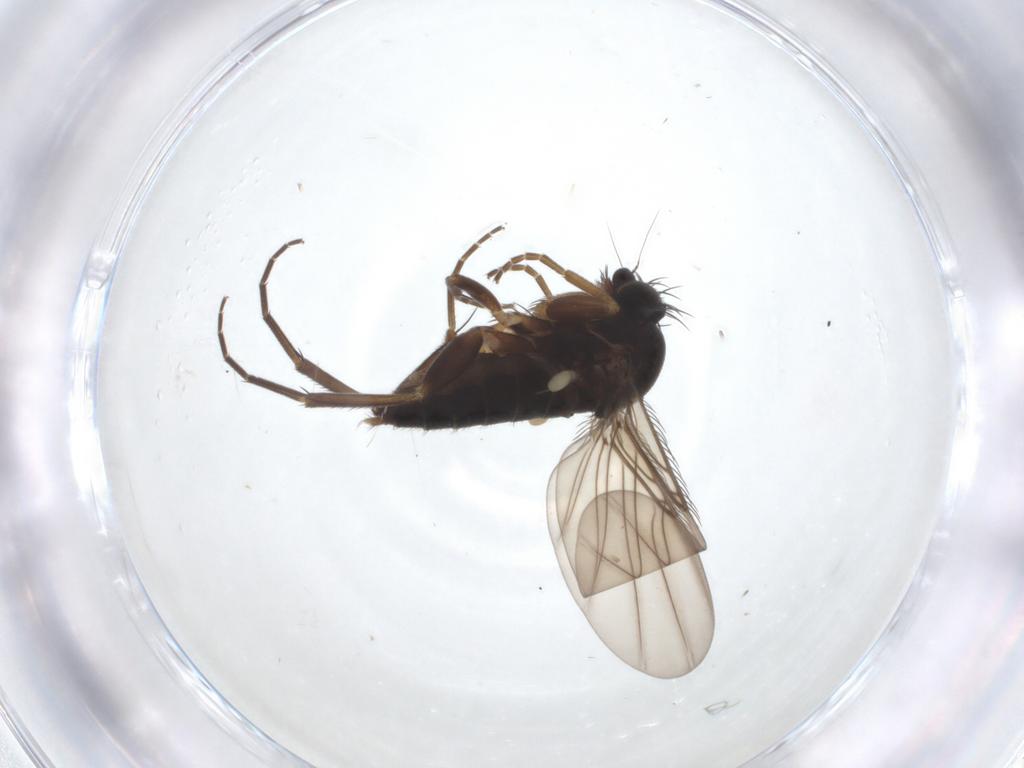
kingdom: Animalia
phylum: Arthropoda
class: Insecta
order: Diptera
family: Phoridae
